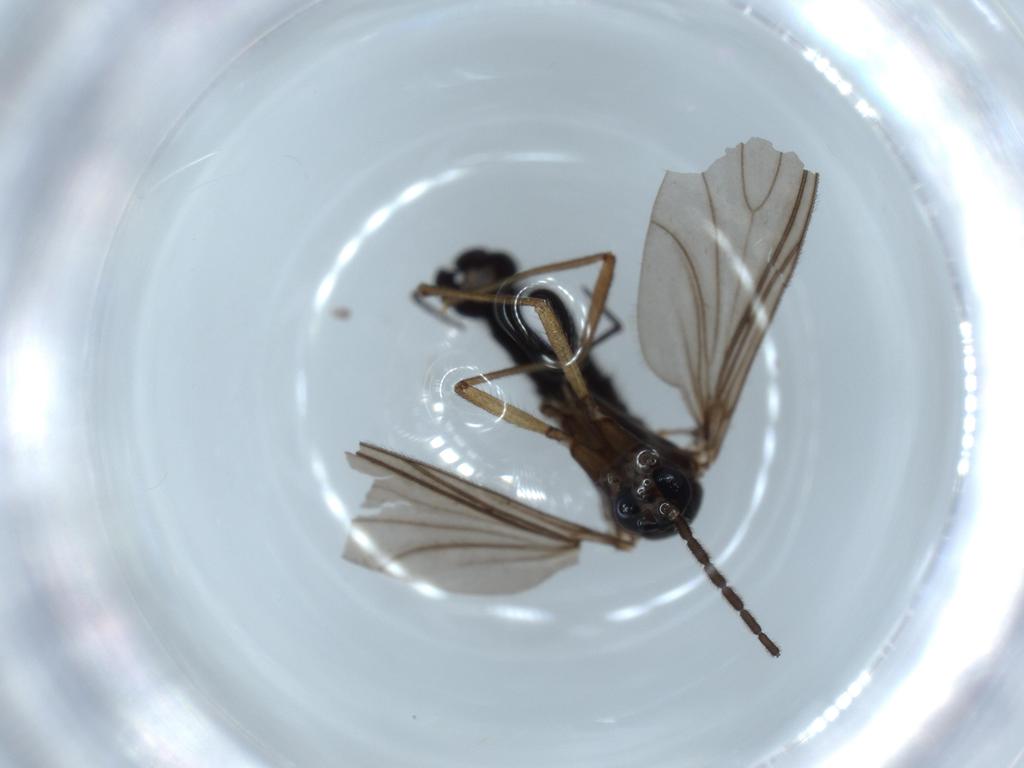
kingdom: Animalia
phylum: Arthropoda
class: Insecta
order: Diptera
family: Sciaridae
